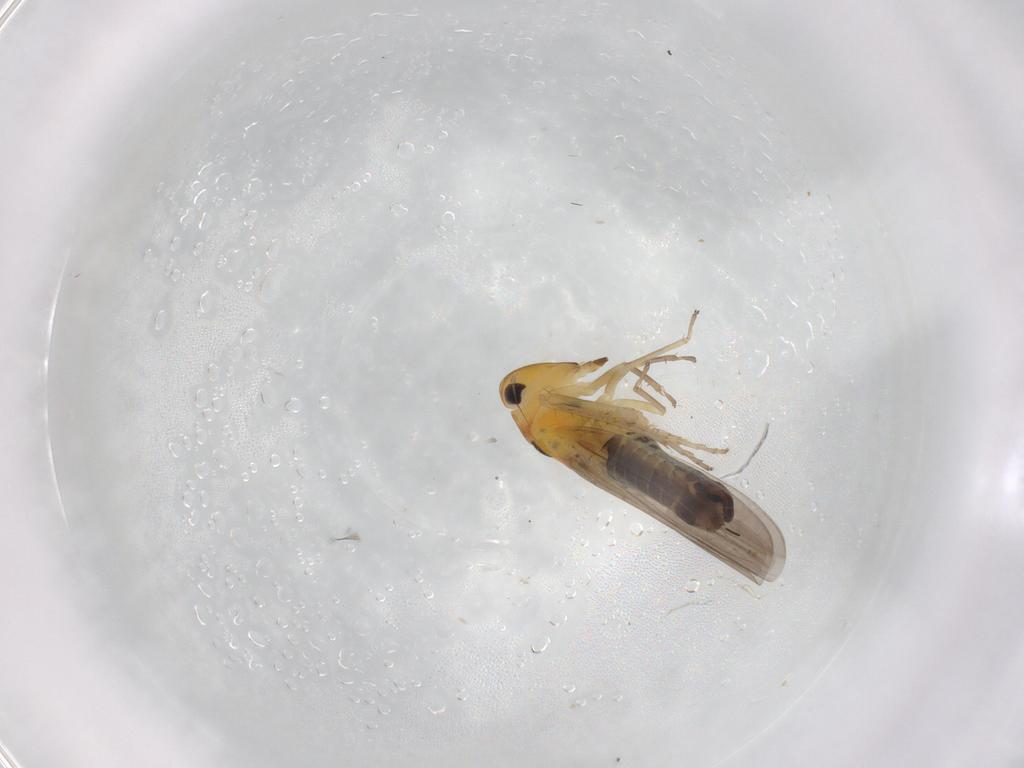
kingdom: Animalia
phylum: Arthropoda
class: Insecta
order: Hemiptera
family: Cicadellidae
